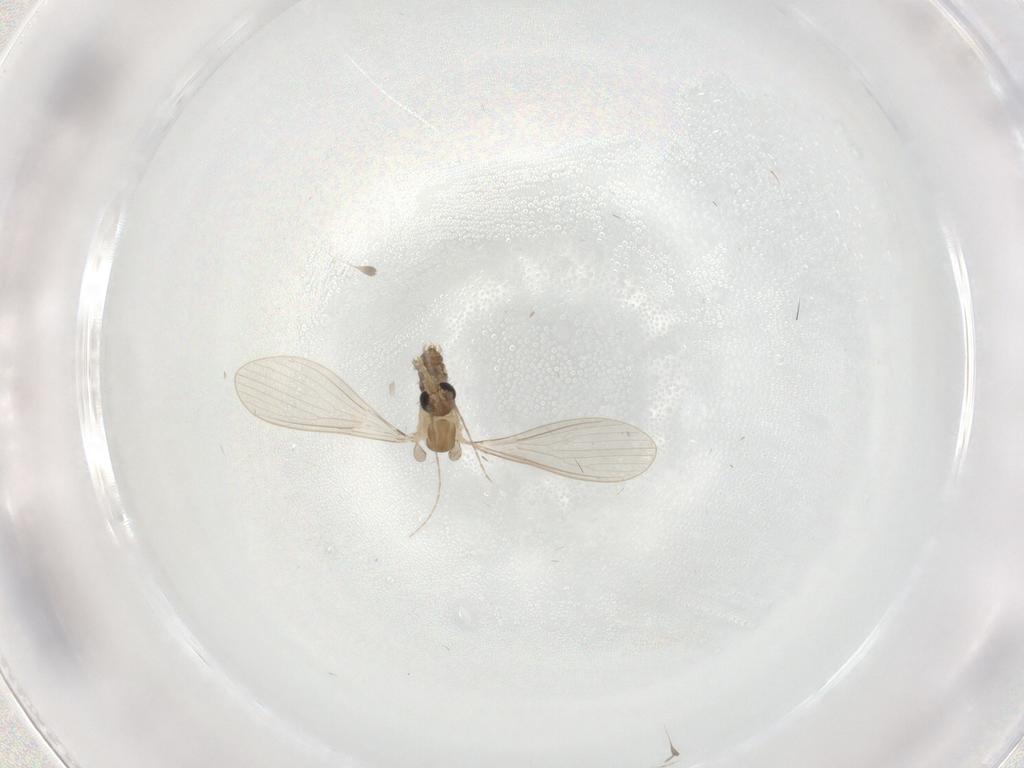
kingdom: Animalia
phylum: Arthropoda
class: Insecta
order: Diptera
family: Psychodidae
